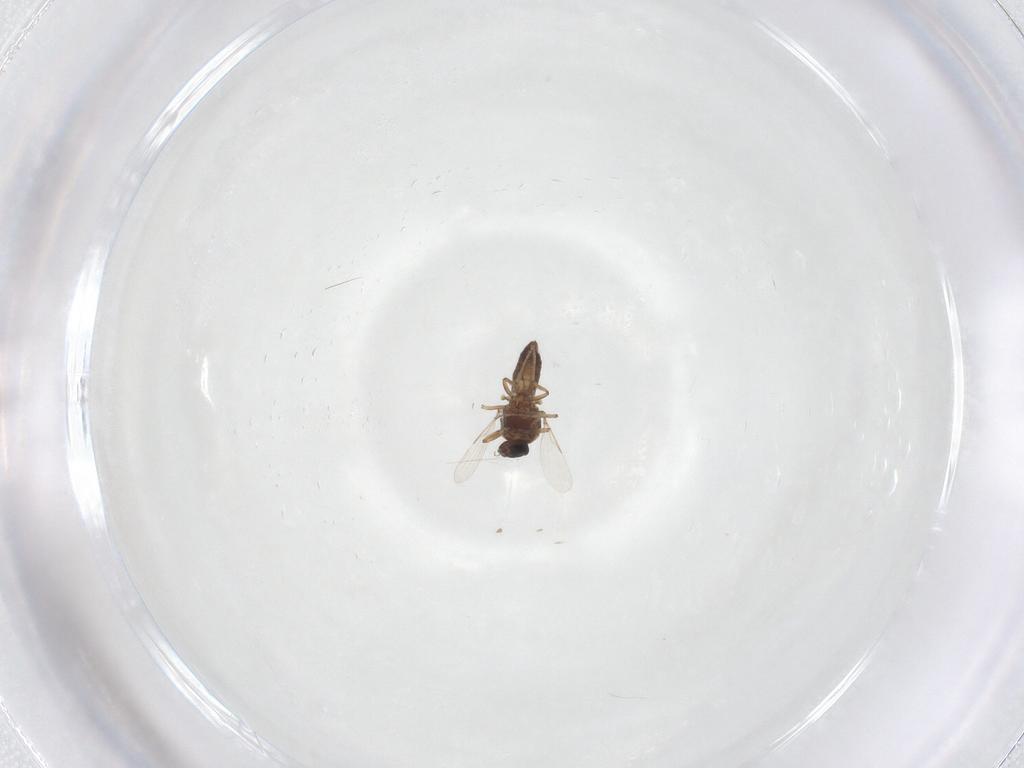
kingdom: Animalia
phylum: Arthropoda
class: Insecta
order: Diptera
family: Ceratopogonidae
